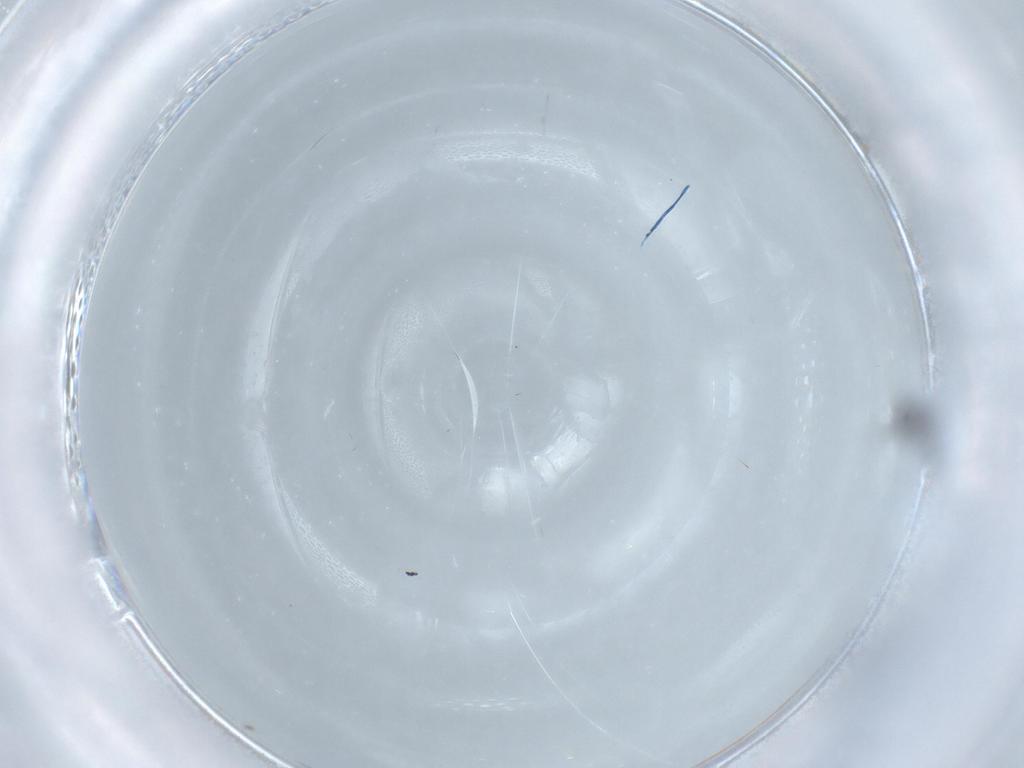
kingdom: Animalia
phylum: Arthropoda
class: Insecta
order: Diptera
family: Chironomidae
